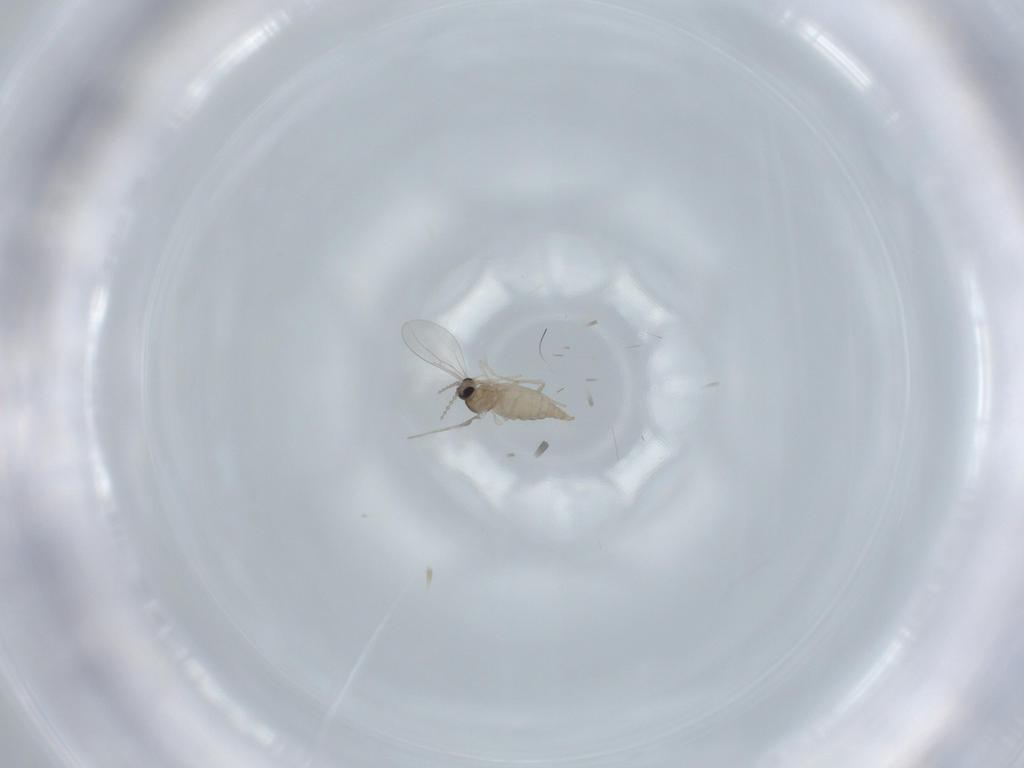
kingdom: Animalia
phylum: Arthropoda
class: Insecta
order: Diptera
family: Cecidomyiidae
